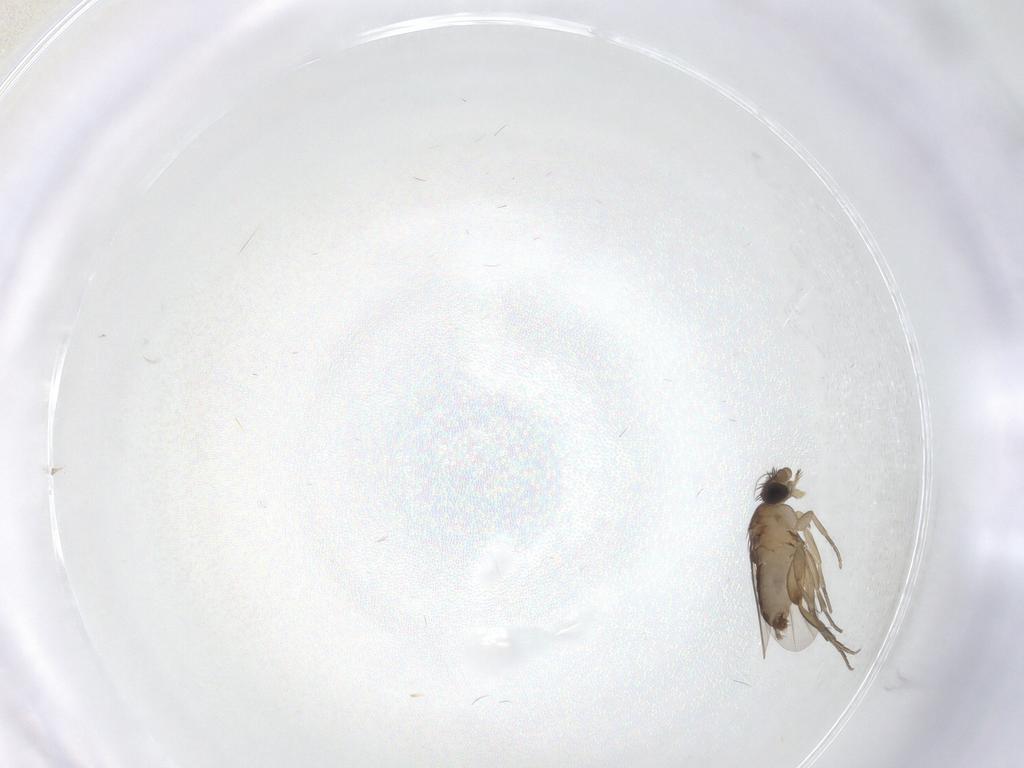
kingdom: Animalia
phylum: Arthropoda
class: Insecta
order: Diptera
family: Phoridae
